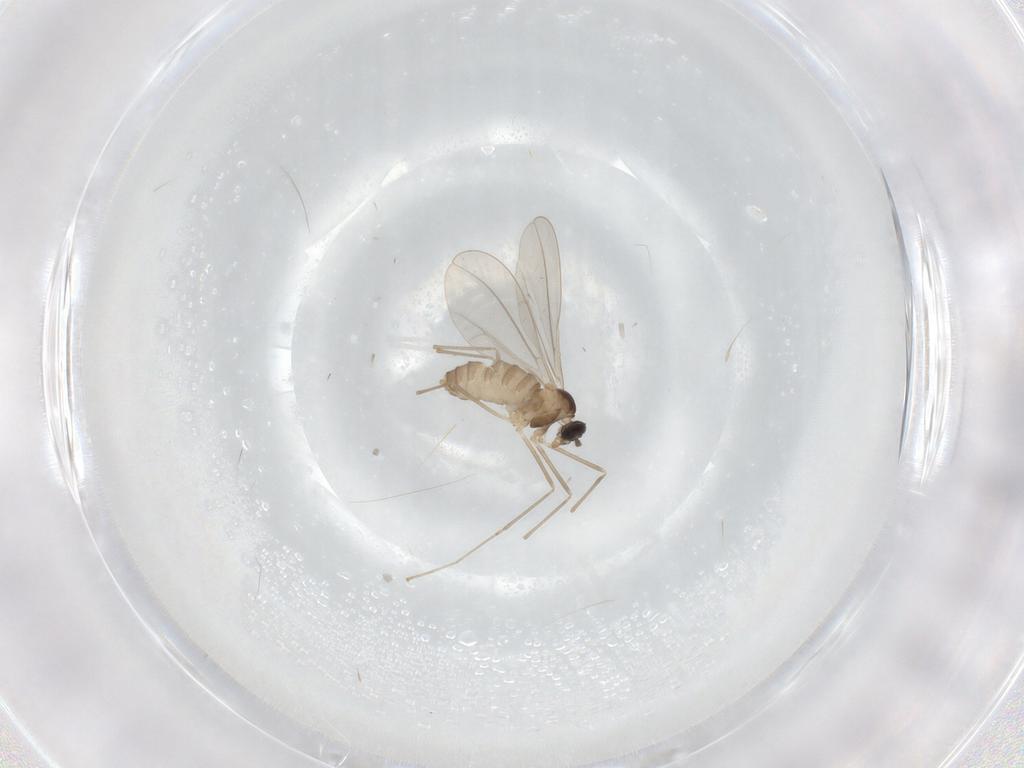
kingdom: Animalia
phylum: Arthropoda
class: Insecta
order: Diptera
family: Cecidomyiidae
